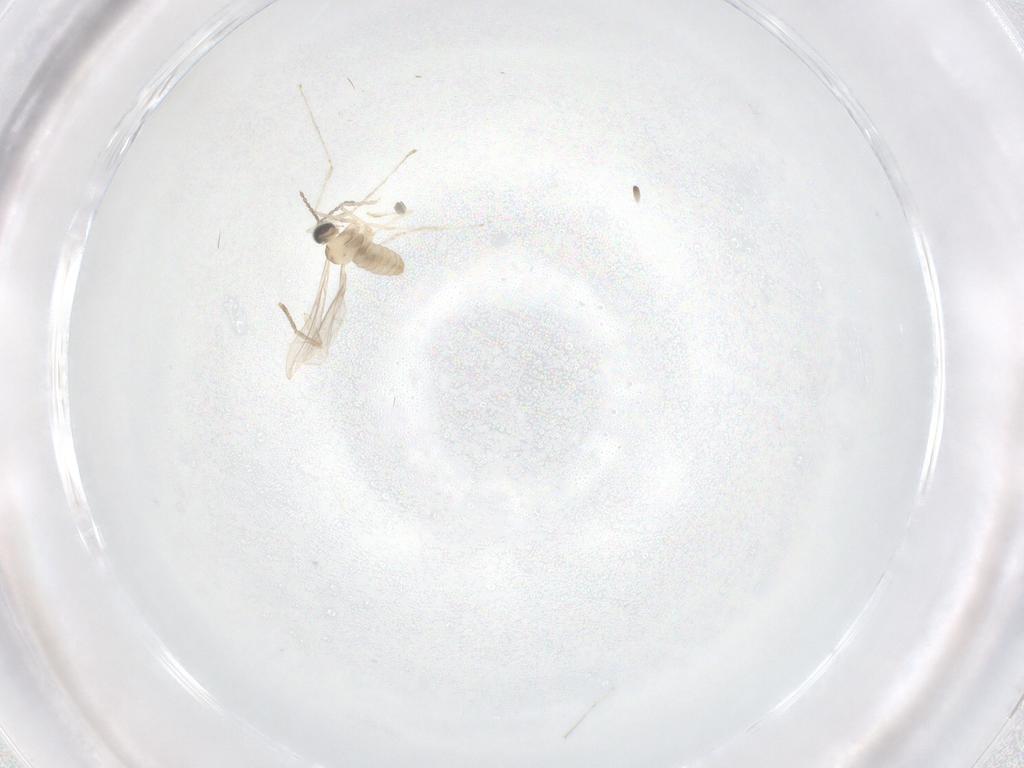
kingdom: Animalia
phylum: Arthropoda
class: Insecta
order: Diptera
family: Cecidomyiidae
